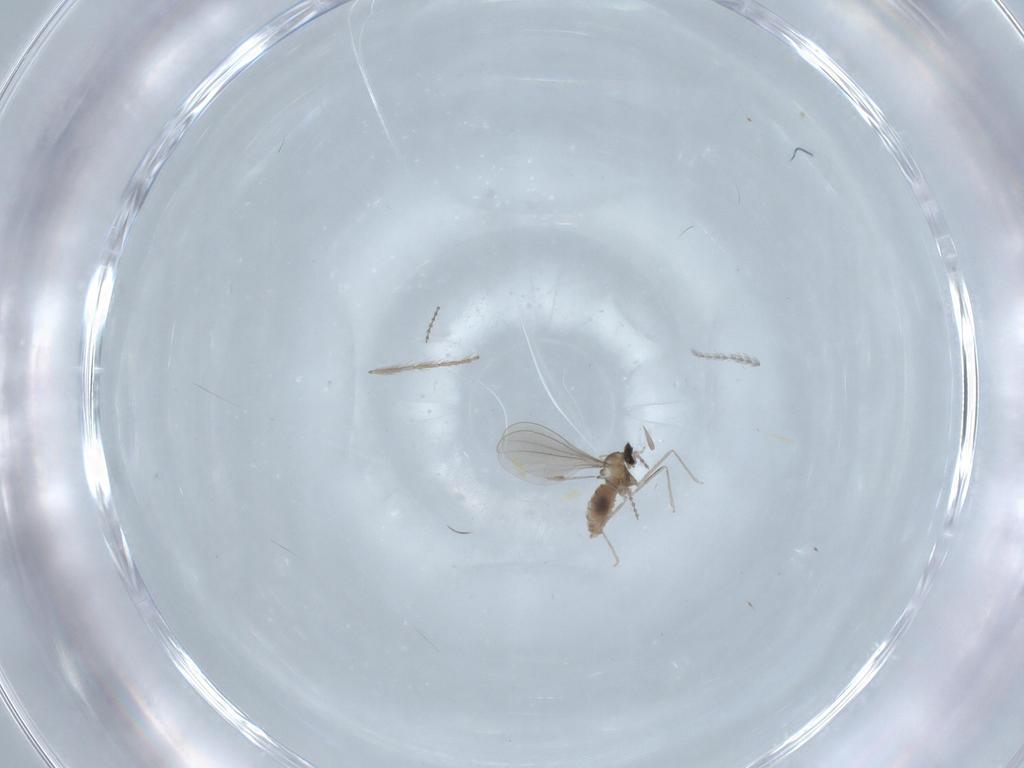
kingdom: Animalia
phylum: Arthropoda
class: Insecta
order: Diptera
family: Chironomidae
